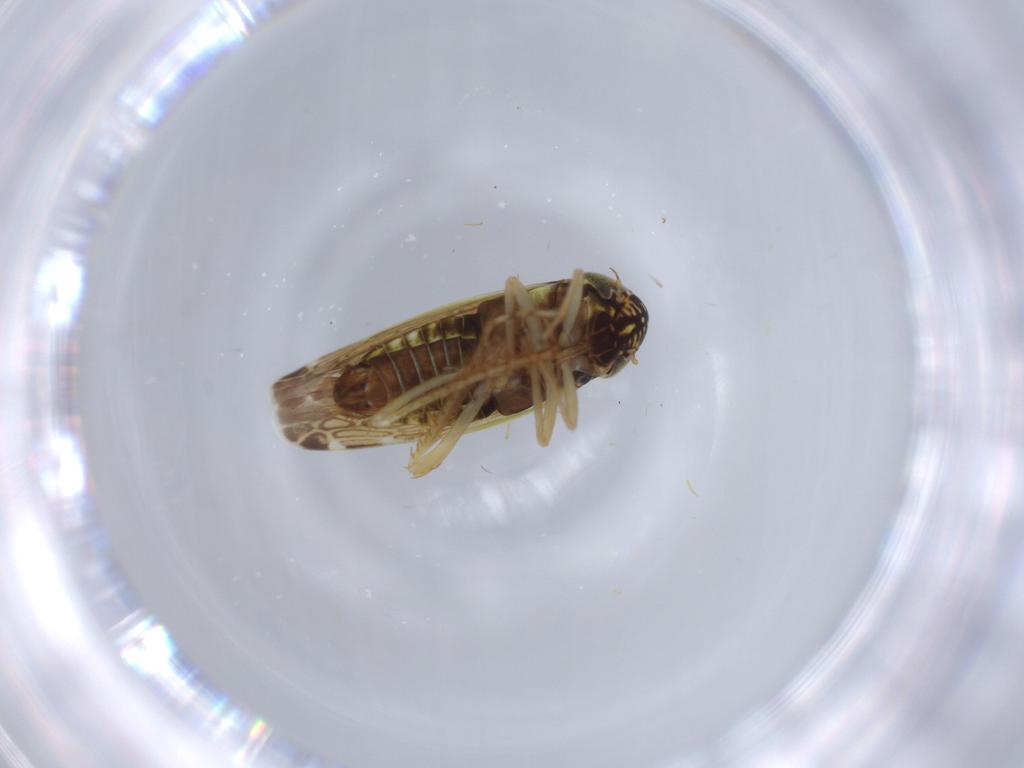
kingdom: Animalia
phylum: Arthropoda
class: Insecta
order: Hemiptera
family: Cicadellidae
